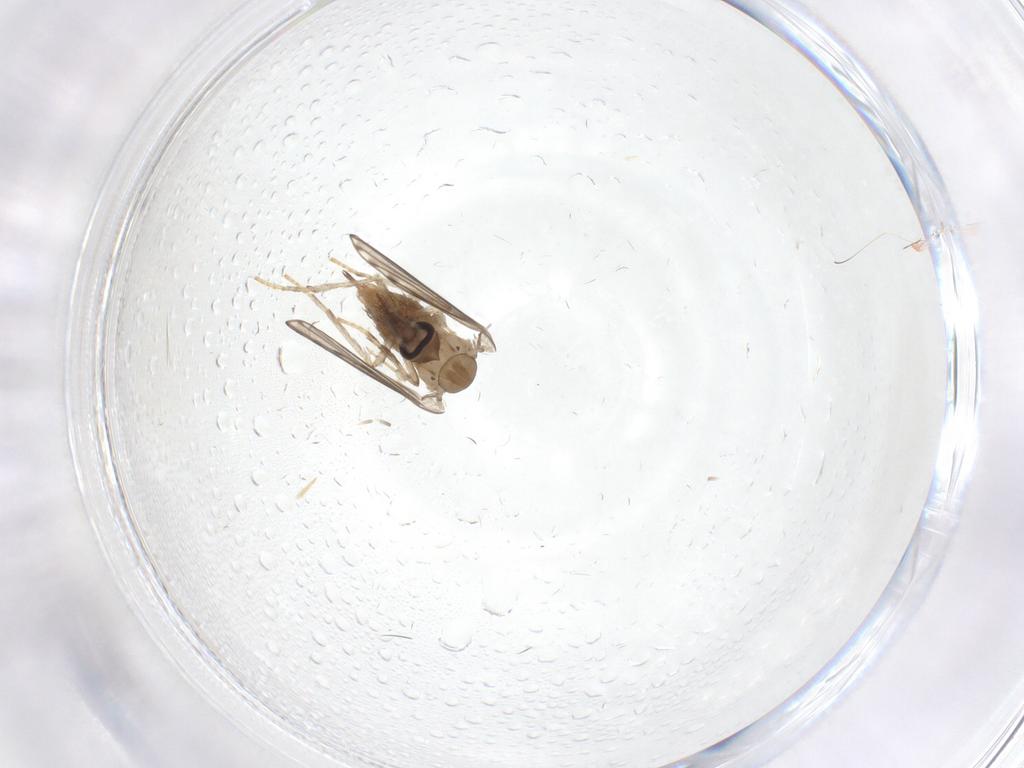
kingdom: Animalia
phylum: Arthropoda
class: Insecta
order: Diptera
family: Psychodidae
